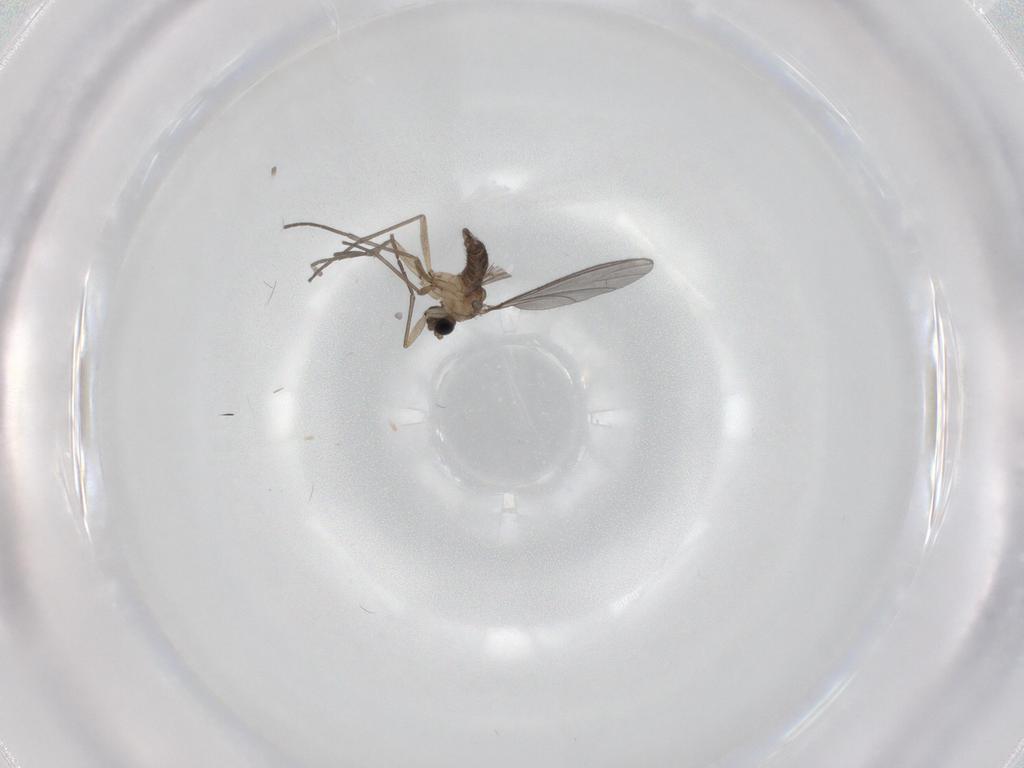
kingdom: Animalia
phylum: Arthropoda
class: Insecta
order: Diptera
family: Sciaridae
